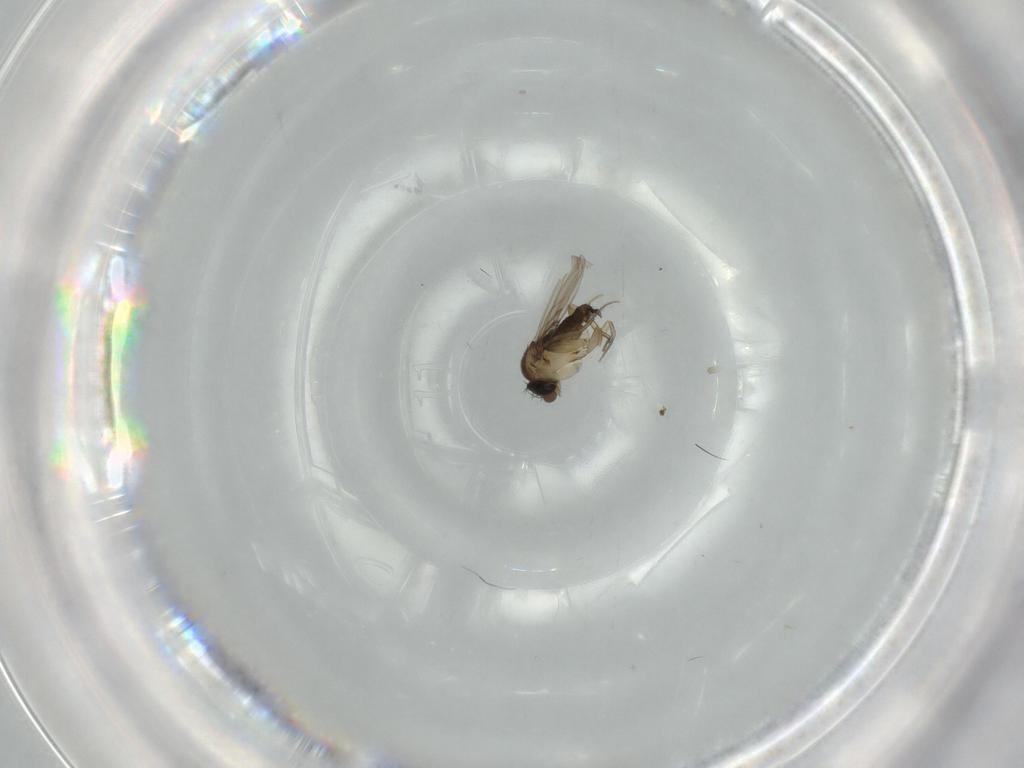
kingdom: Animalia
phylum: Arthropoda
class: Insecta
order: Diptera
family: Phoridae
